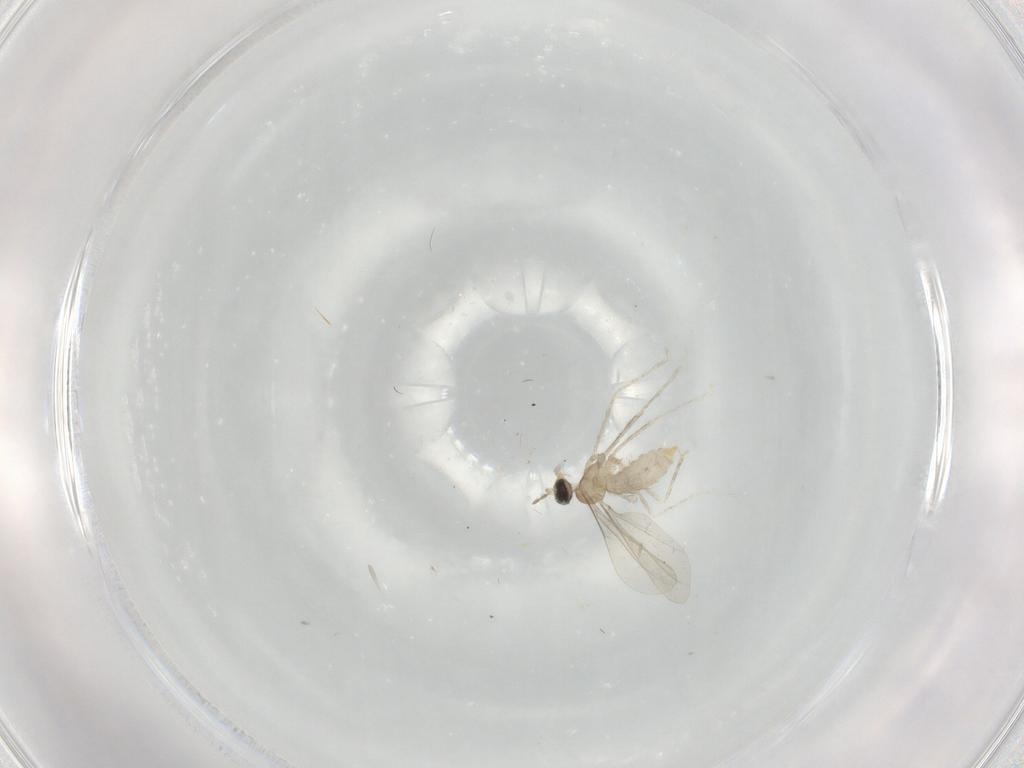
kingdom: Animalia
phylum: Arthropoda
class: Insecta
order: Diptera
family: Cecidomyiidae
